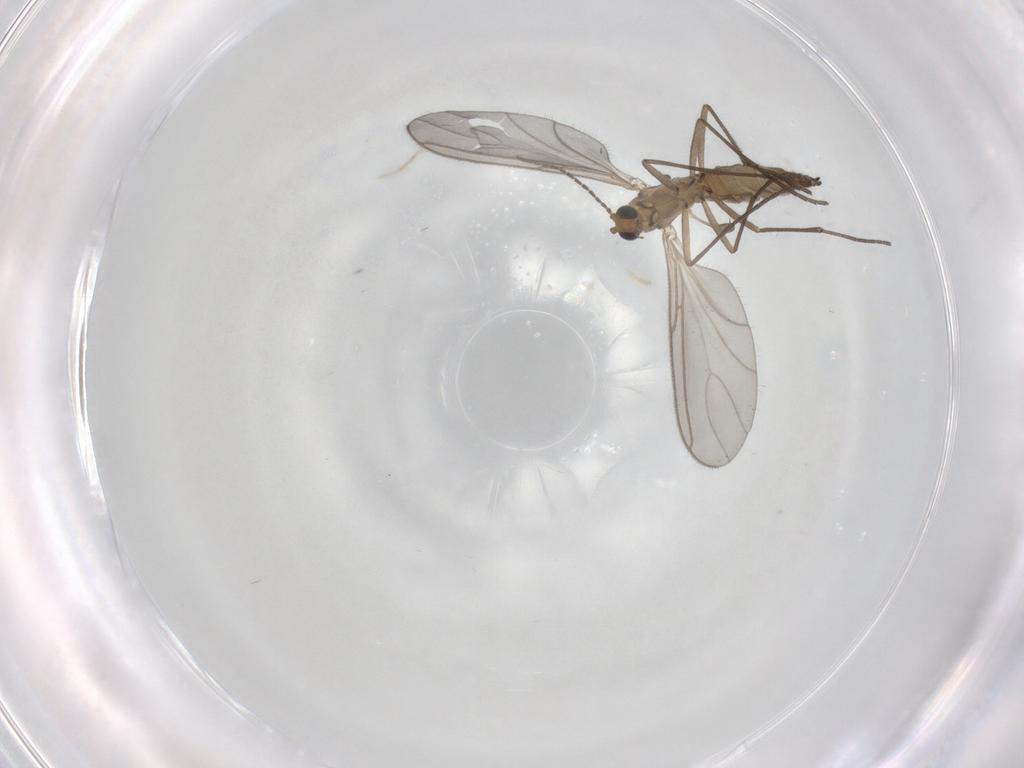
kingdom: Animalia
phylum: Arthropoda
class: Insecta
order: Diptera
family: Sciaridae
